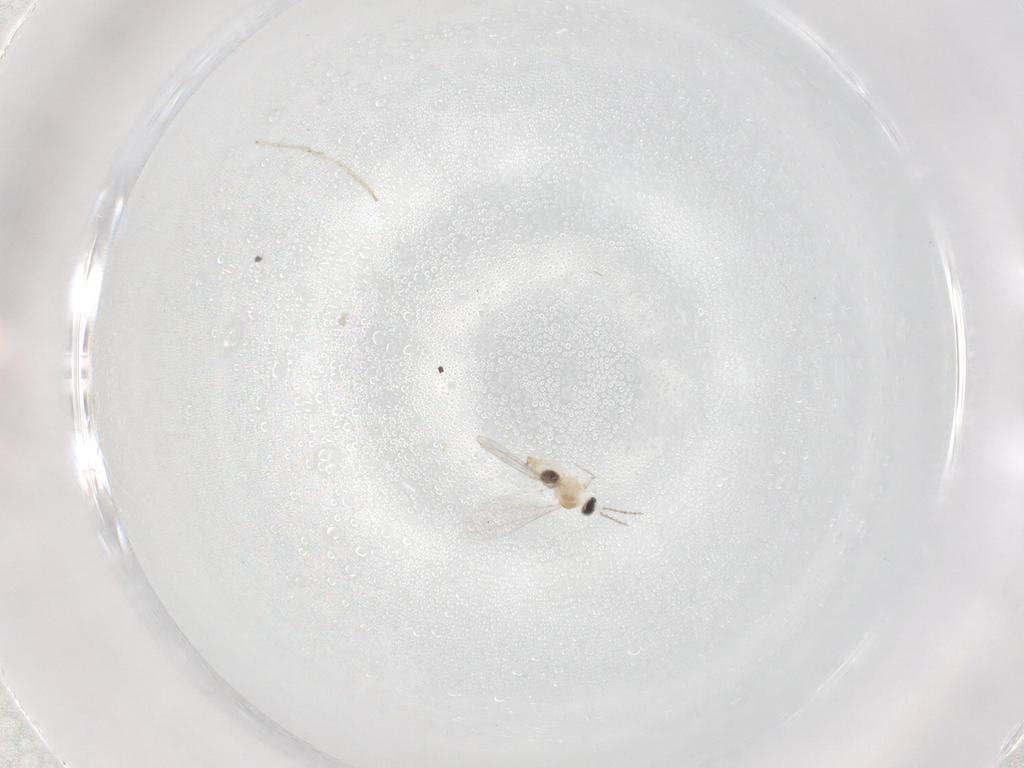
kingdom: Animalia
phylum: Arthropoda
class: Insecta
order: Diptera
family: Cecidomyiidae
